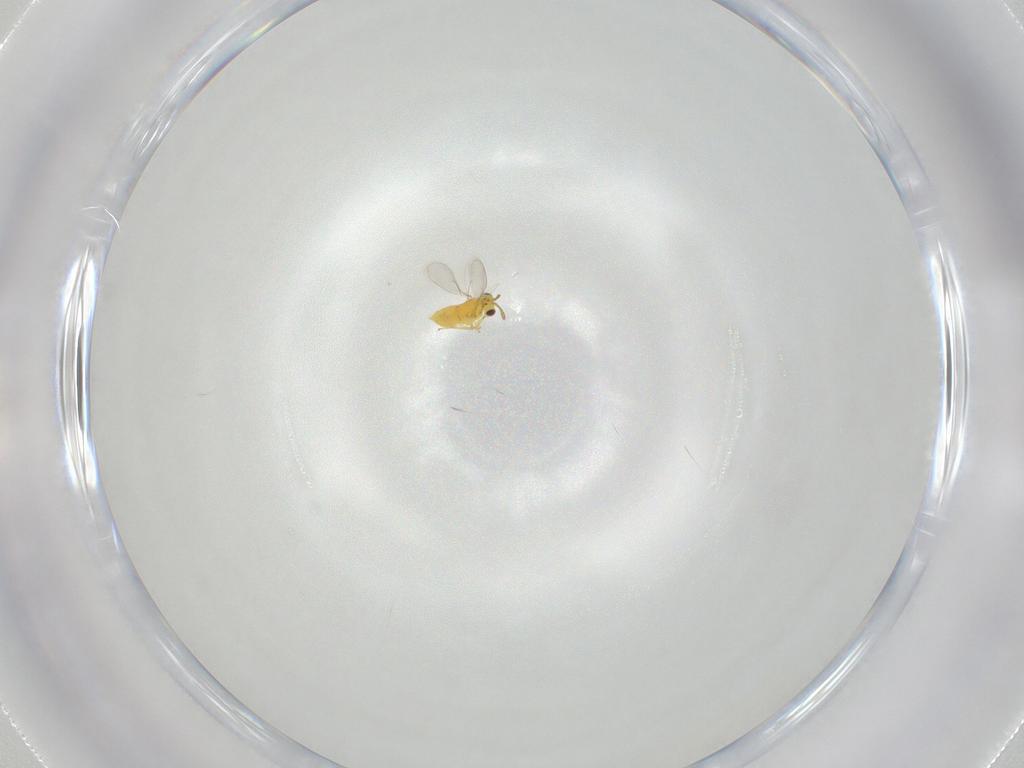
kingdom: Animalia
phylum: Arthropoda
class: Insecta
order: Hymenoptera
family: Aphelinidae
